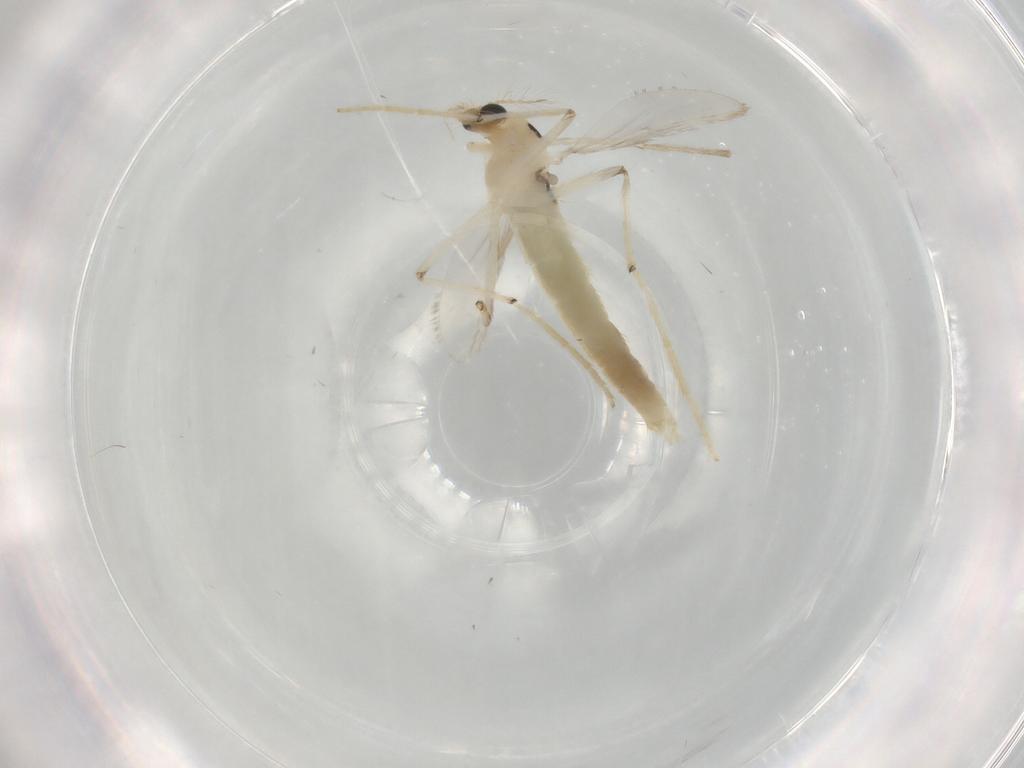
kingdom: Animalia
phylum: Arthropoda
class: Insecta
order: Diptera
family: Chironomidae
